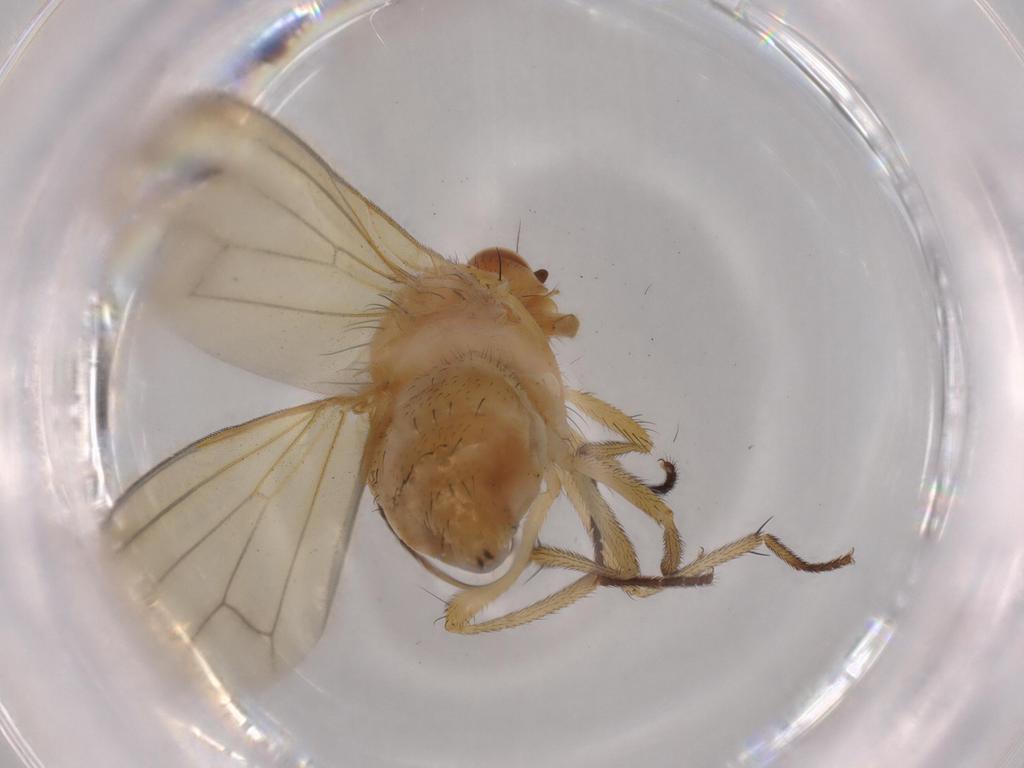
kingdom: Animalia
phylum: Arthropoda
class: Insecta
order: Diptera
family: Lauxaniidae
